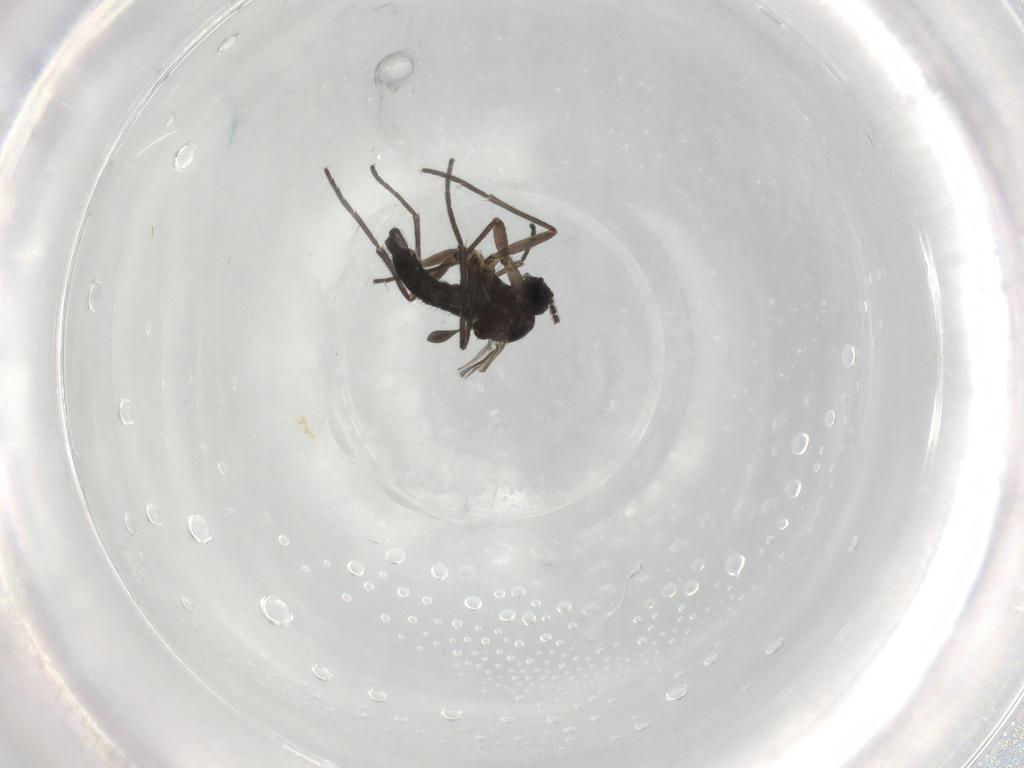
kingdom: Animalia
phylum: Arthropoda
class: Insecta
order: Diptera
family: Sciaridae
